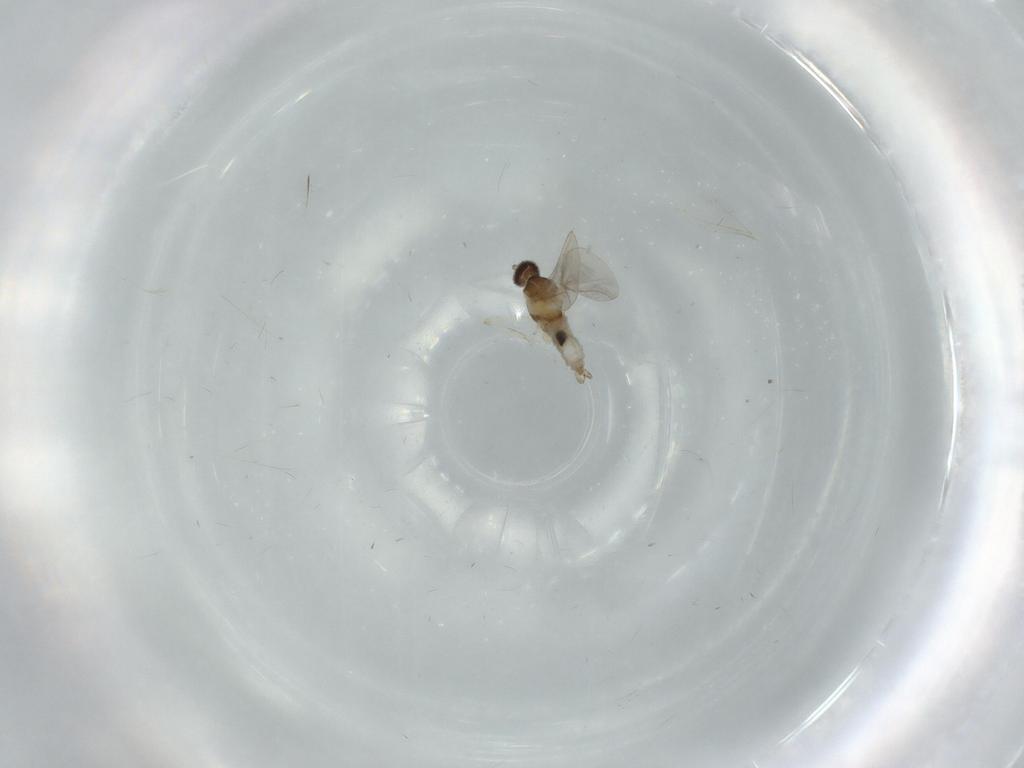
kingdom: Animalia
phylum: Arthropoda
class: Insecta
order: Diptera
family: Cecidomyiidae
